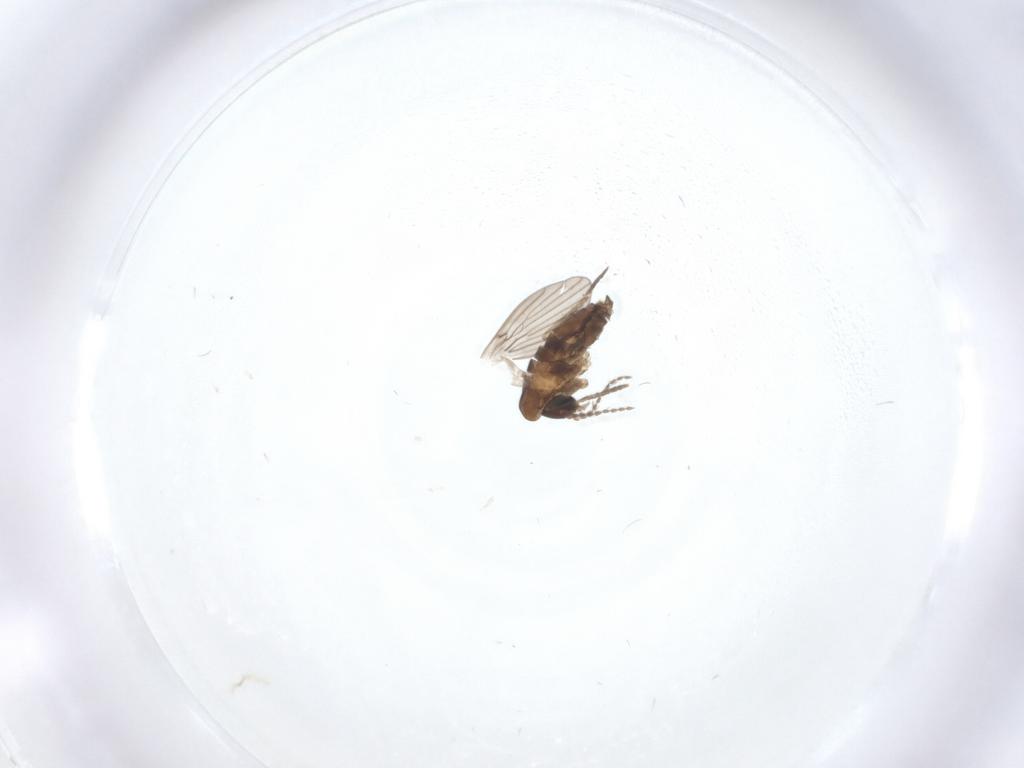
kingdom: Animalia
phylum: Arthropoda
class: Insecta
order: Diptera
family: Psychodidae
